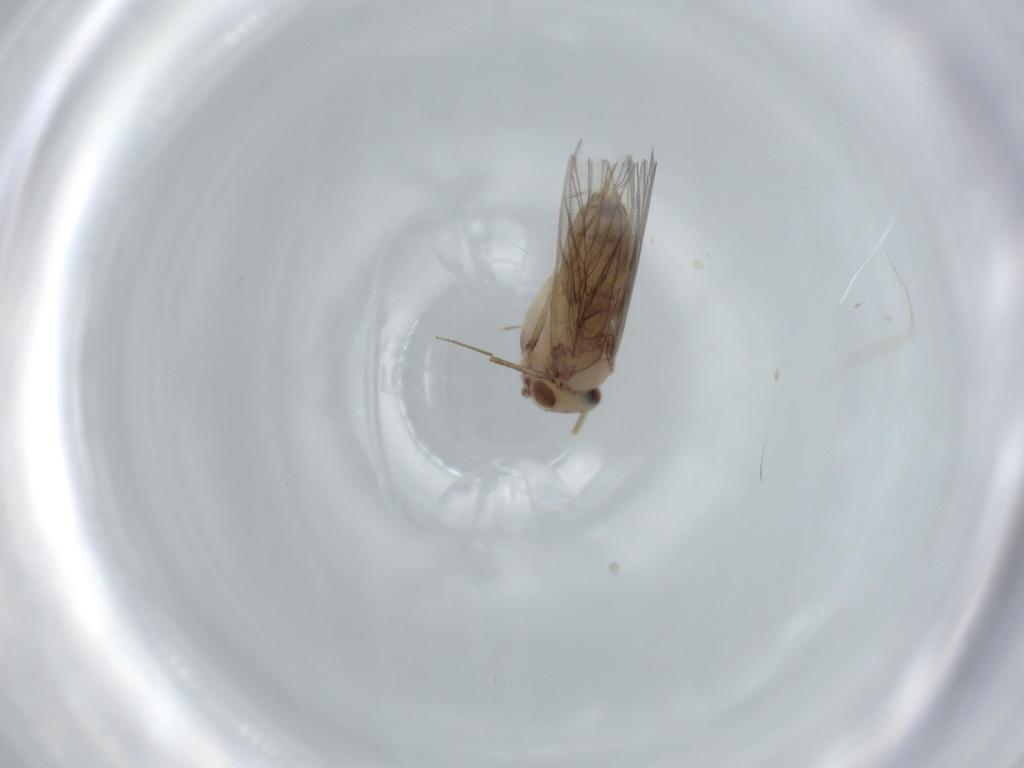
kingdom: Animalia
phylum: Arthropoda
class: Insecta
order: Psocodea
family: Lepidopsocidae
